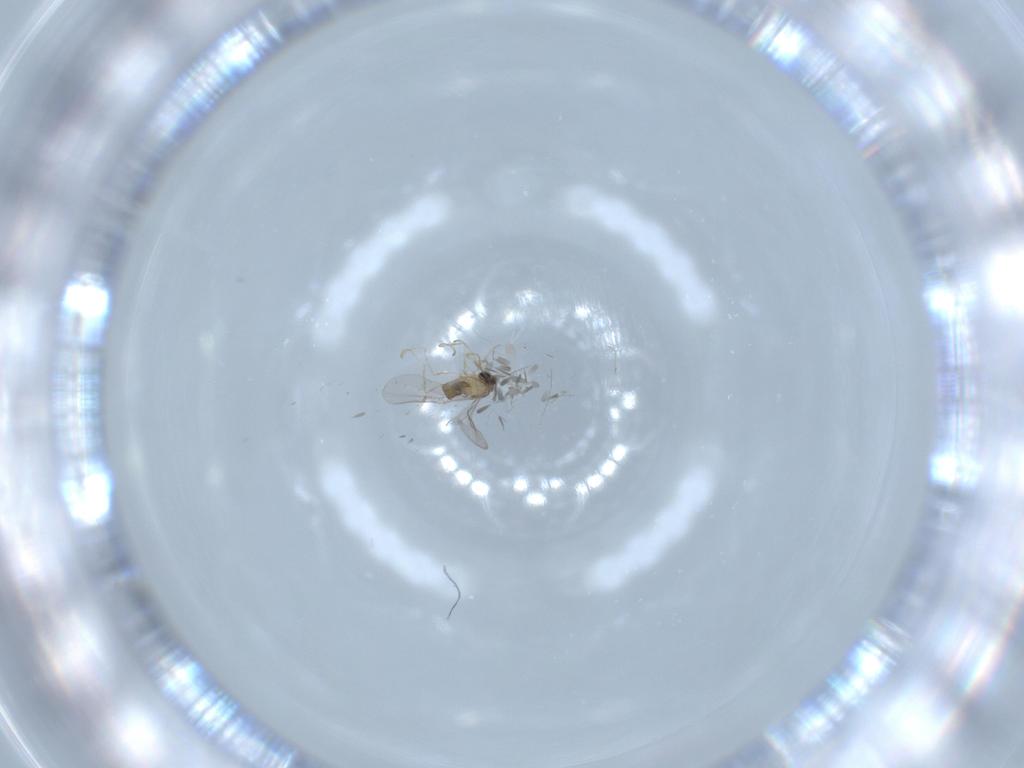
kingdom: Animalia
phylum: Arthropoda
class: Insecta
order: Diptera
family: Cecidomyiidae
